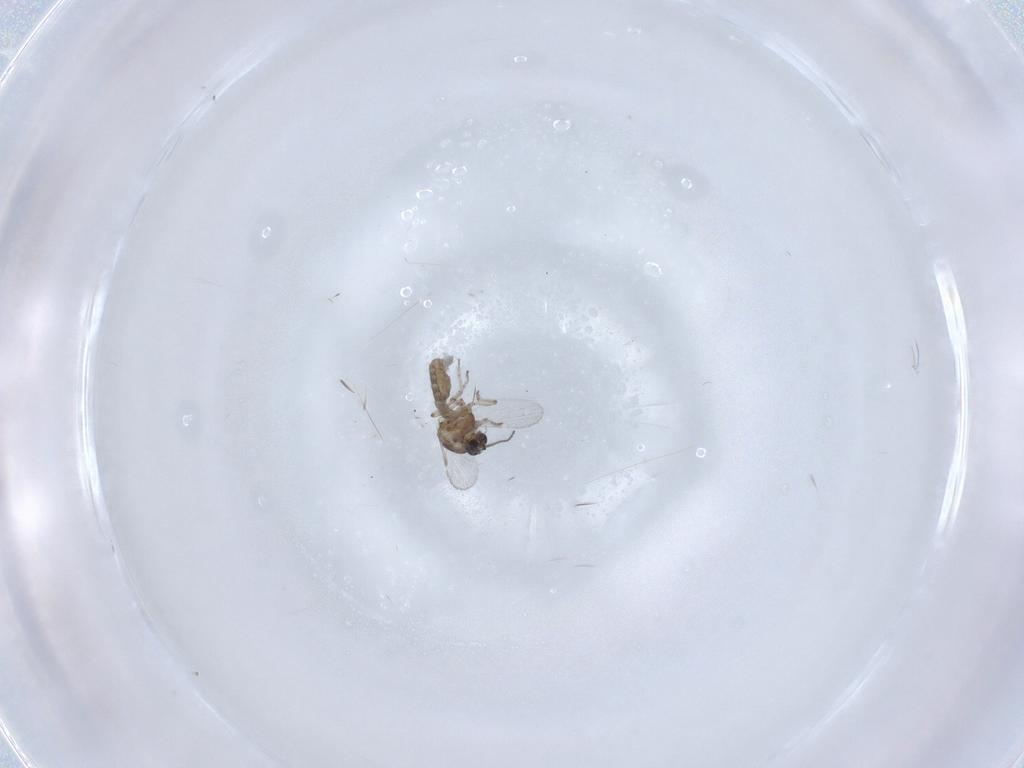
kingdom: Animalia
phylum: Arthropoda
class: Insecta
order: Diptera
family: Ceratopogonidae
